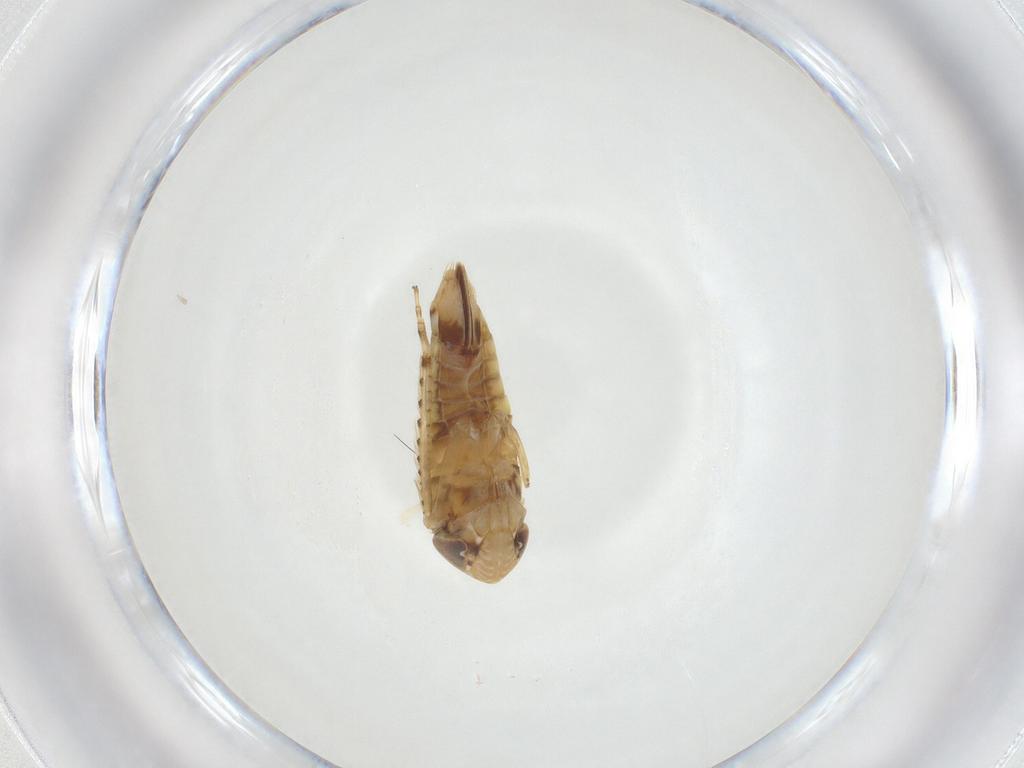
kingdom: Animalia
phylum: Arthropoda
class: Insecta
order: Hemiptera
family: Cicadellidae
